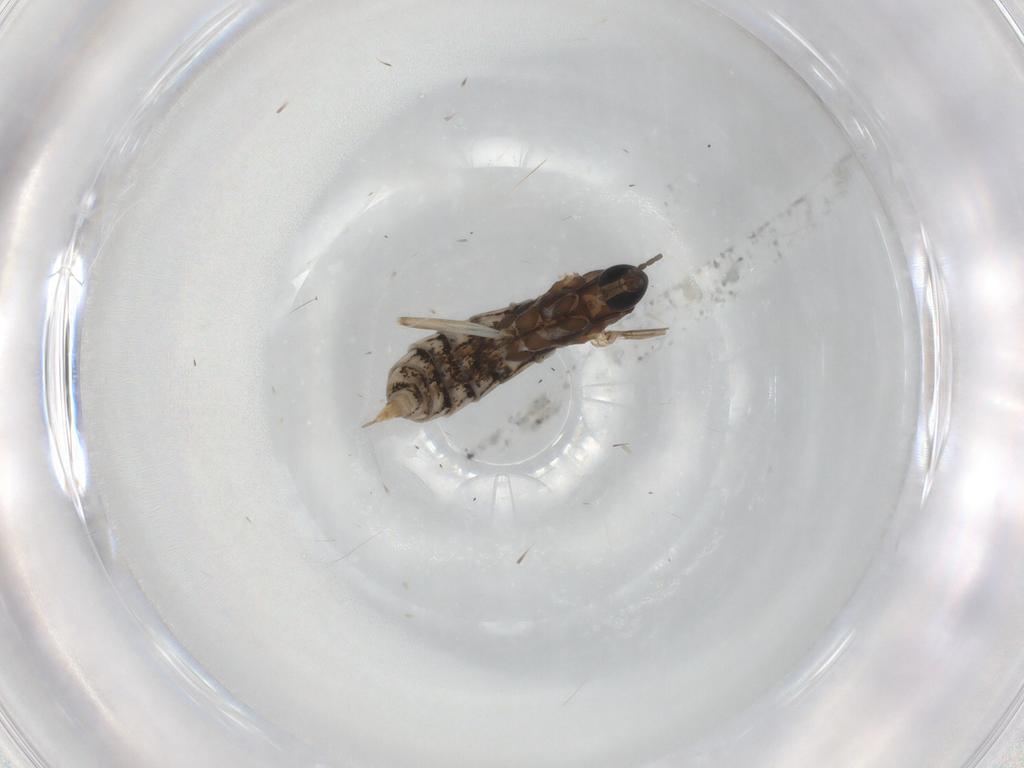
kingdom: Animalia
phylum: Arthropoda
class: Insecta
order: Diptera
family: Cecidomyiidae
